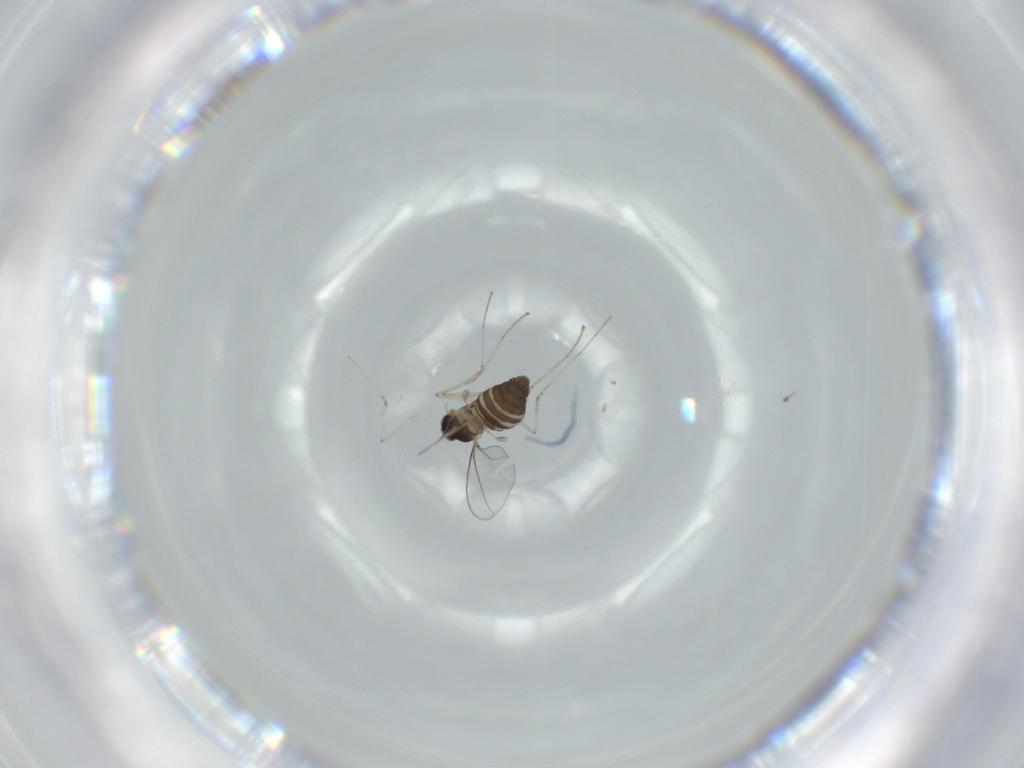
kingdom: Animalia
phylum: Arthropoda
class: Insecta
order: Diptera
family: Cecidomyiidae
